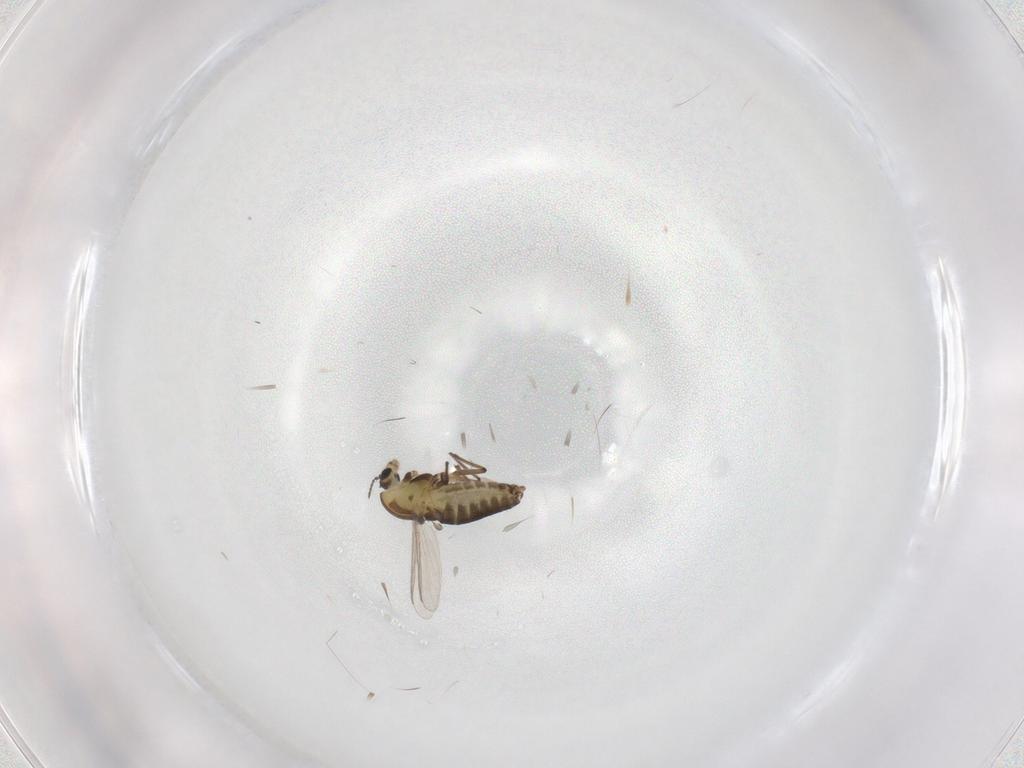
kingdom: Animalia
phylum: Arthropoda
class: Insecta
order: Diptera
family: Chironomidae
